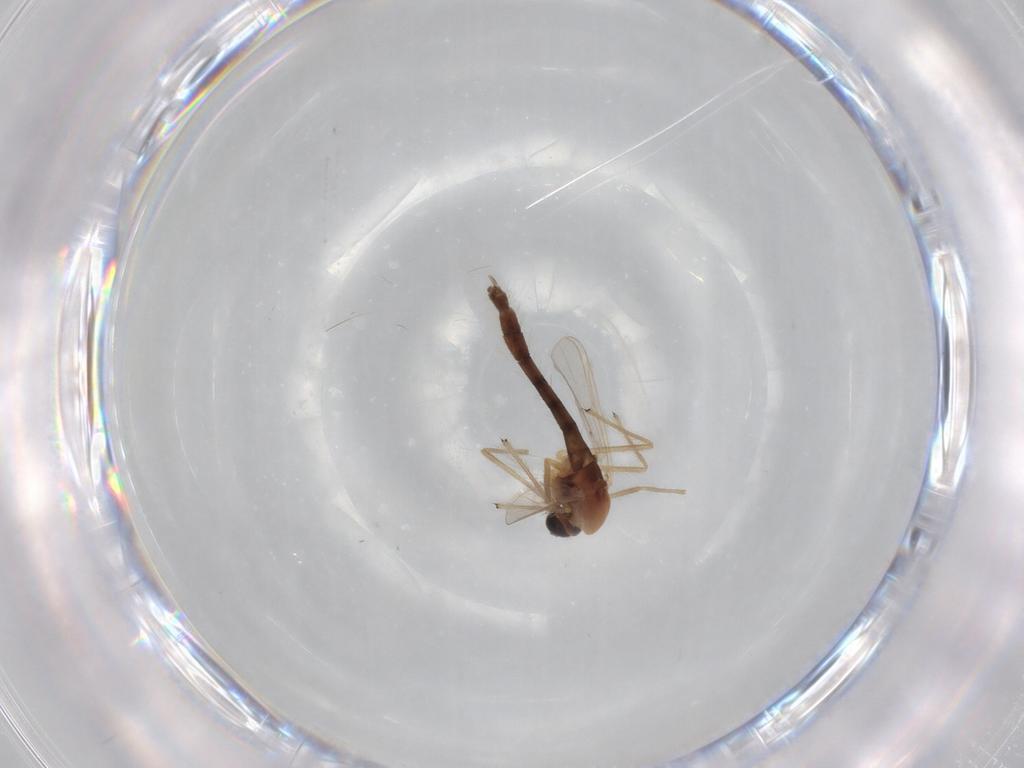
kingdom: Animalia
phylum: Arthropoda
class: Insecta
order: Diptera
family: Chironomidae
